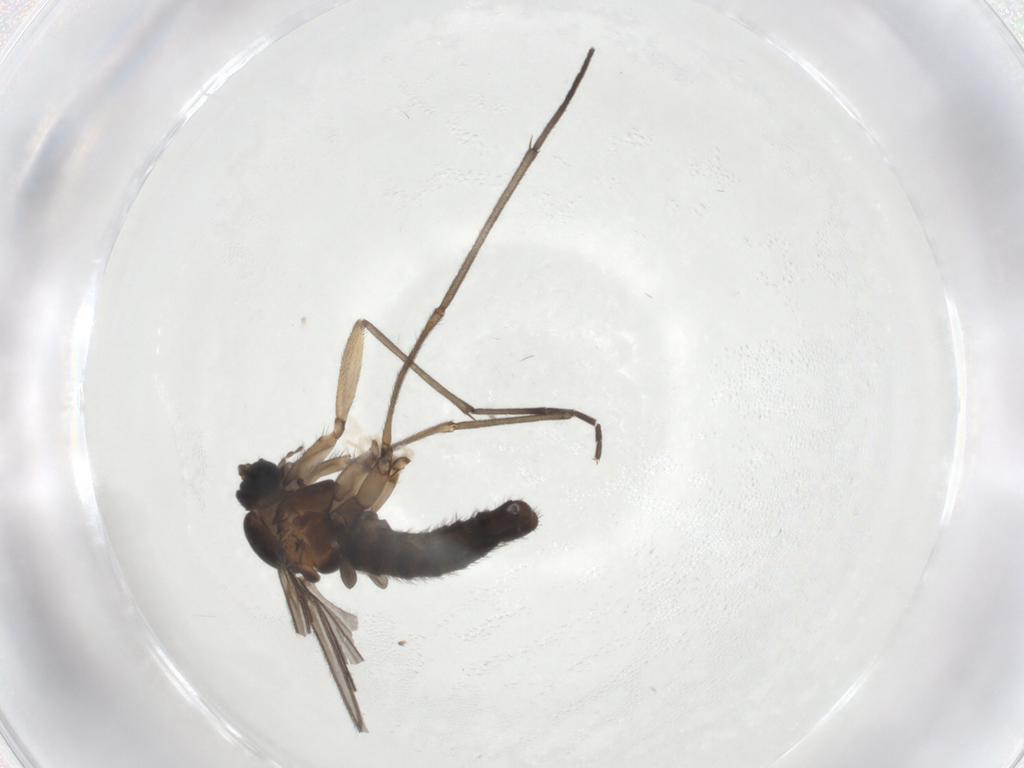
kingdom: Animalia
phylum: Arthropoda
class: Insecta
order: Diptera
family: Sciaridae
